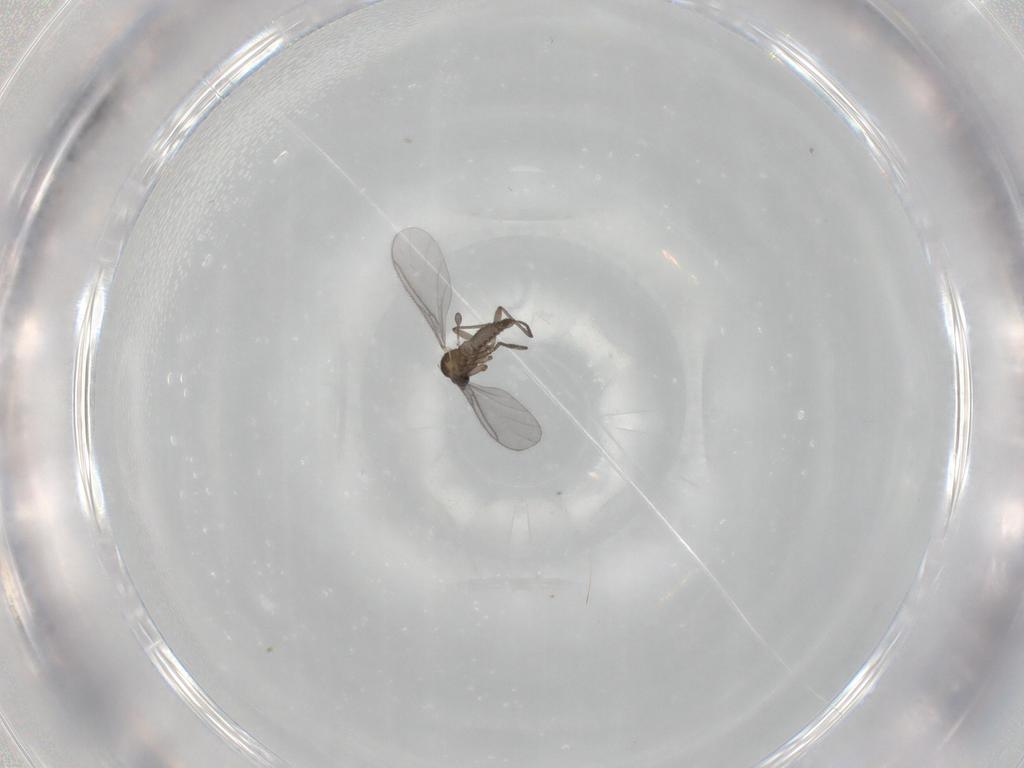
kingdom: Animalia
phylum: Arthropoda
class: Insecta
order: Diptera
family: Sciaridae
